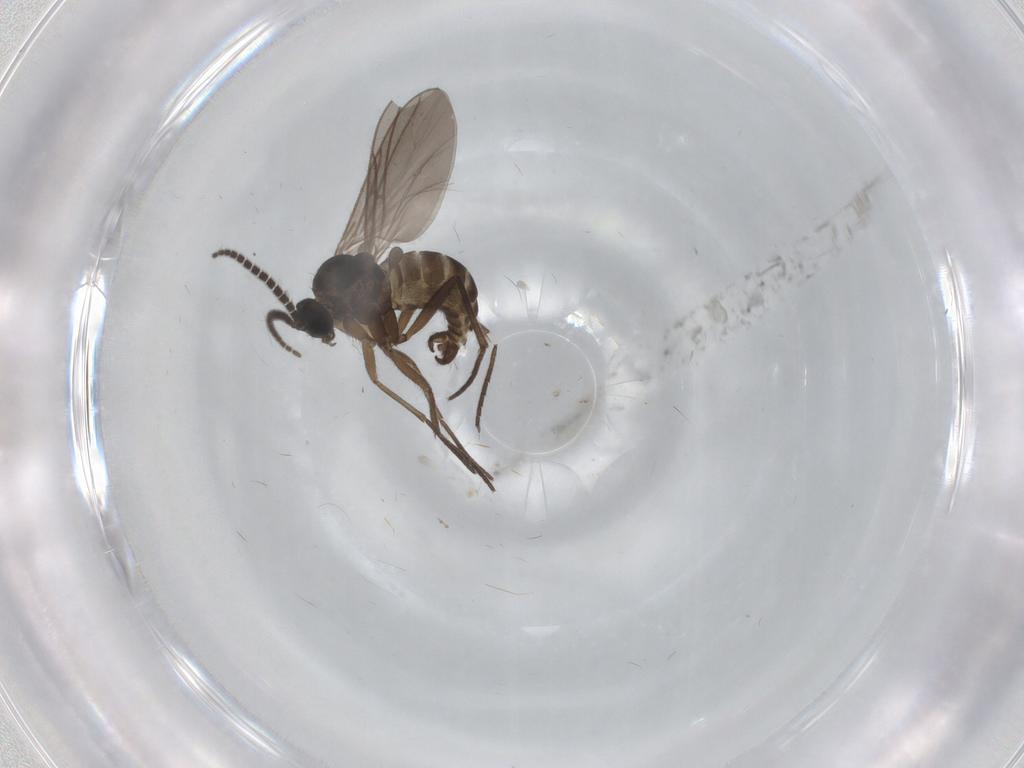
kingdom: Animalia
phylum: Arthropoda
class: Insecta
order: Diptera
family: Sciaridae
